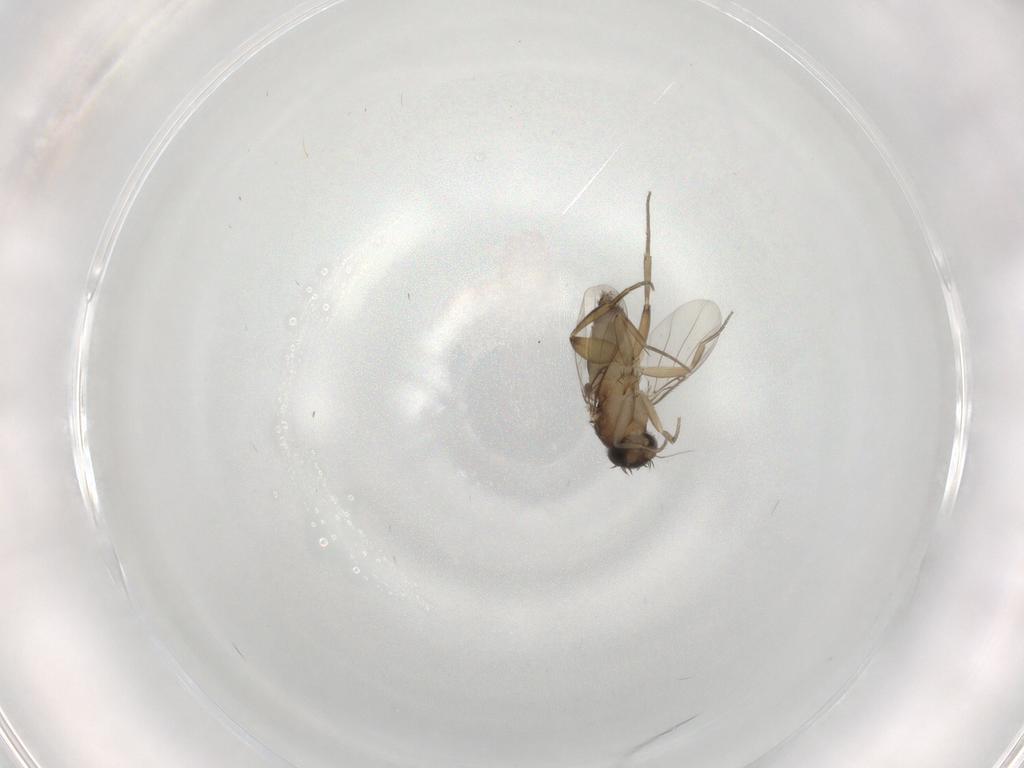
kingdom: Animalia
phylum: Arthropoda
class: Insecta
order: Diptera
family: Phoridae
